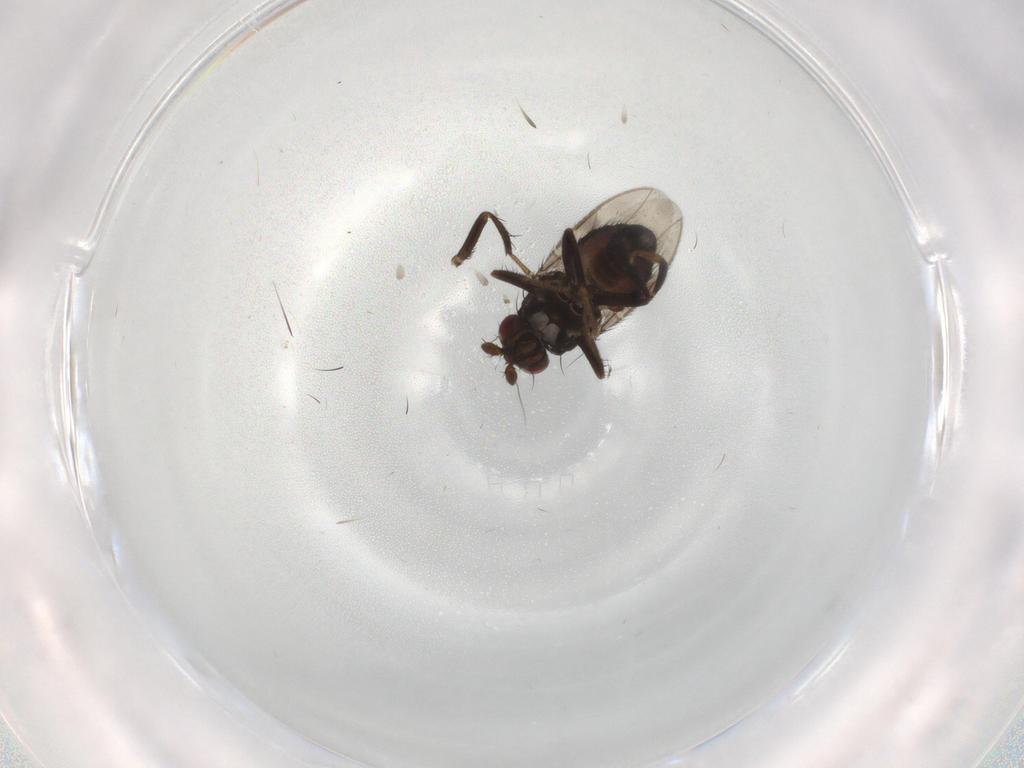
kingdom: Animalia
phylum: Arthropoda
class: Insecta
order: Diptera
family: Sphaeroceridae
